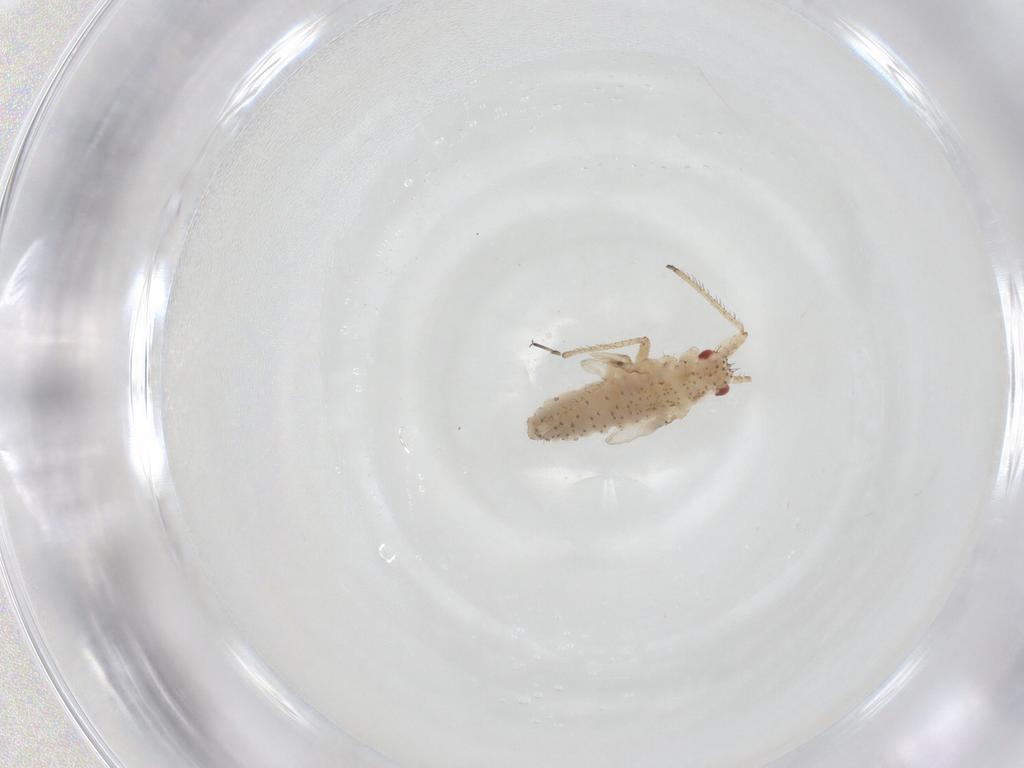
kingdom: Animalia
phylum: Arthropoda
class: Insecta
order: Hemiptera
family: Aphididae
